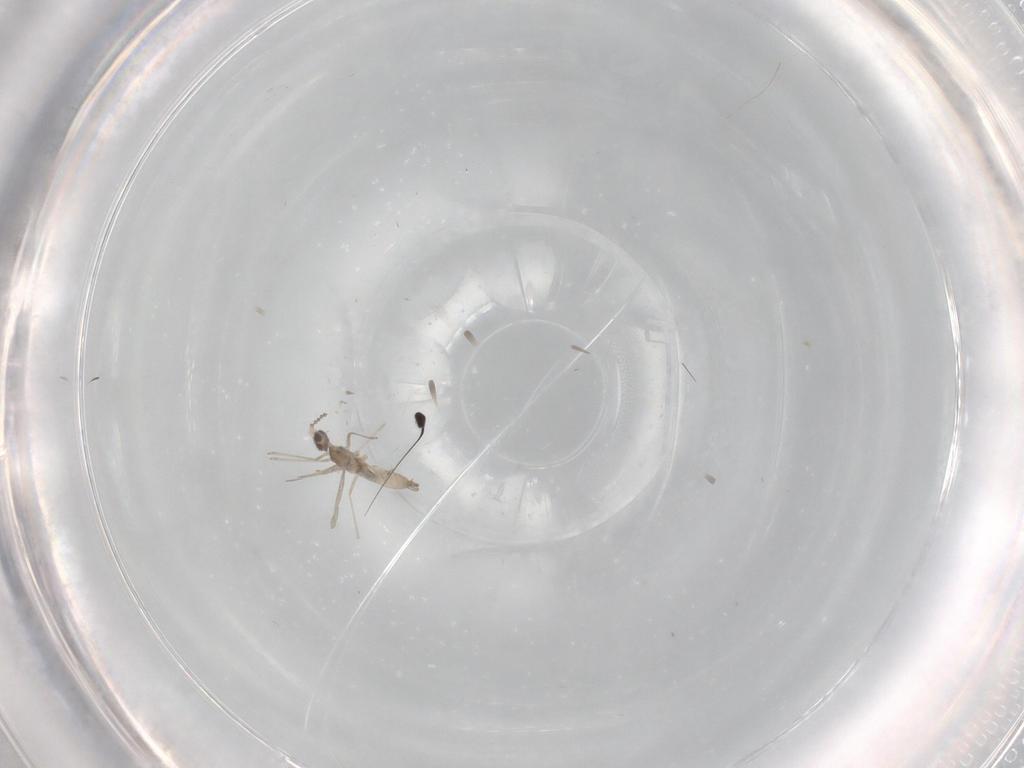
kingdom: Animalia
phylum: Arthropoda
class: Insecta
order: Diptera
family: Cecidomyiidae
